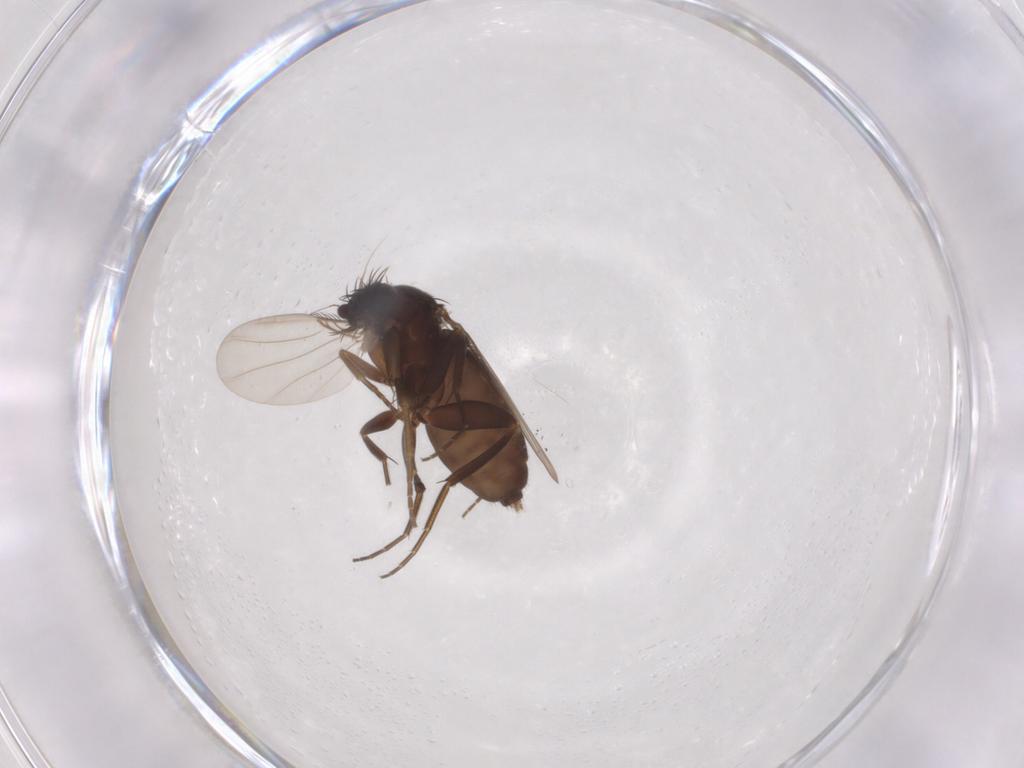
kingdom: Animalia
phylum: Arthropoda
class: Insecta
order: Diptera
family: Phoridae
